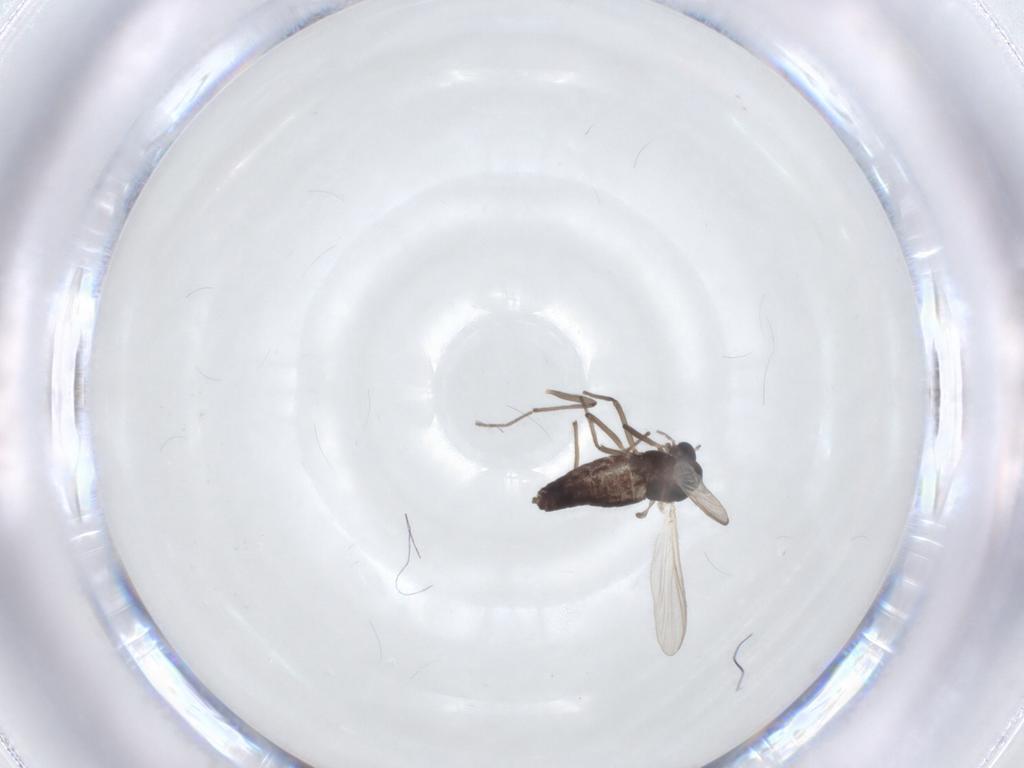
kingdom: Animalia
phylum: Arthropoda
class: Insecta
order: Diptera
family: Chironomidae
